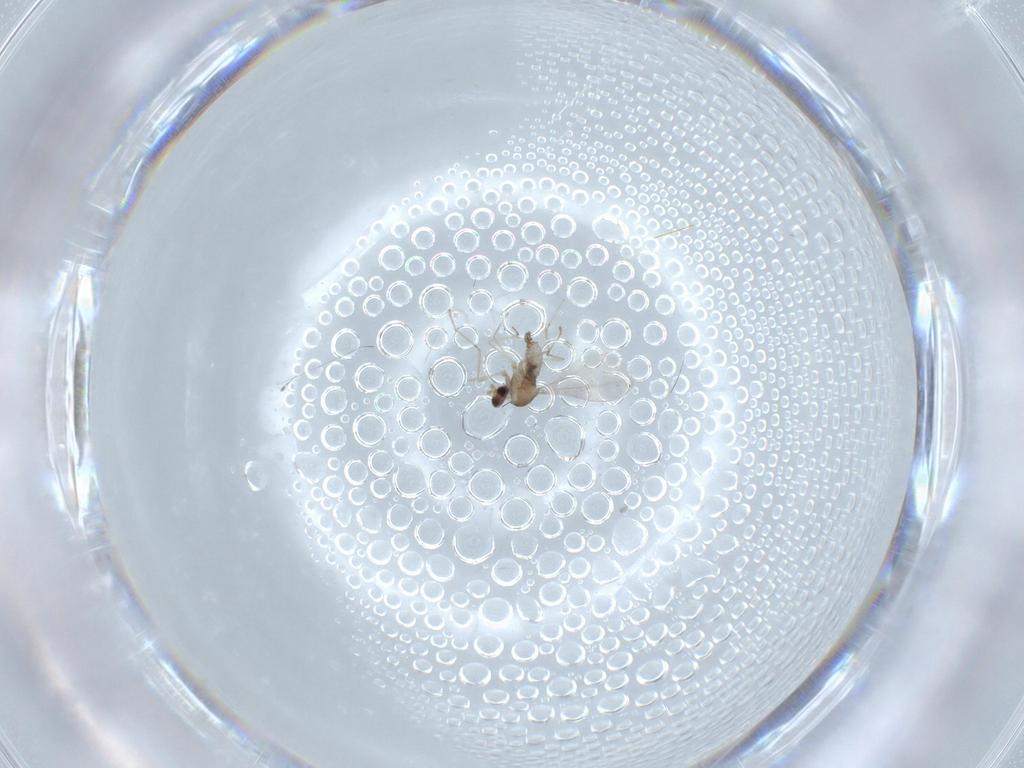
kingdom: Animalia
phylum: Arthropoda
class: Insecta
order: Diptera
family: Cecidomyiidae
